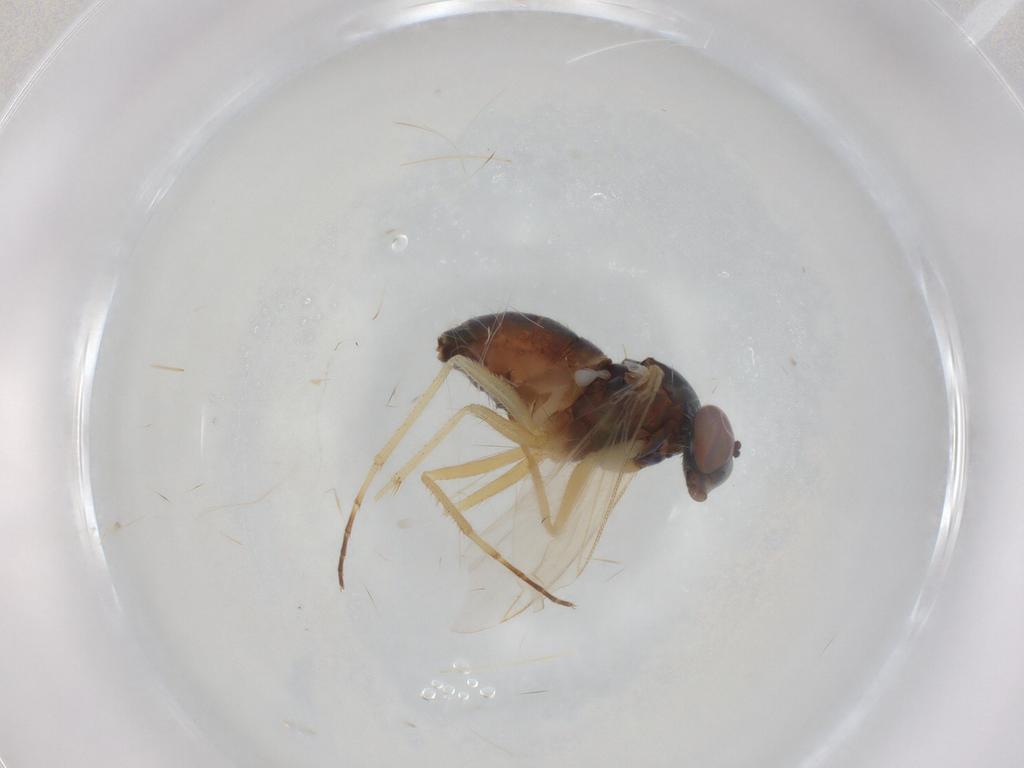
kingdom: Animalia
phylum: Arthropoda
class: Insecta
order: Diptera
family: Dolichopodidae
